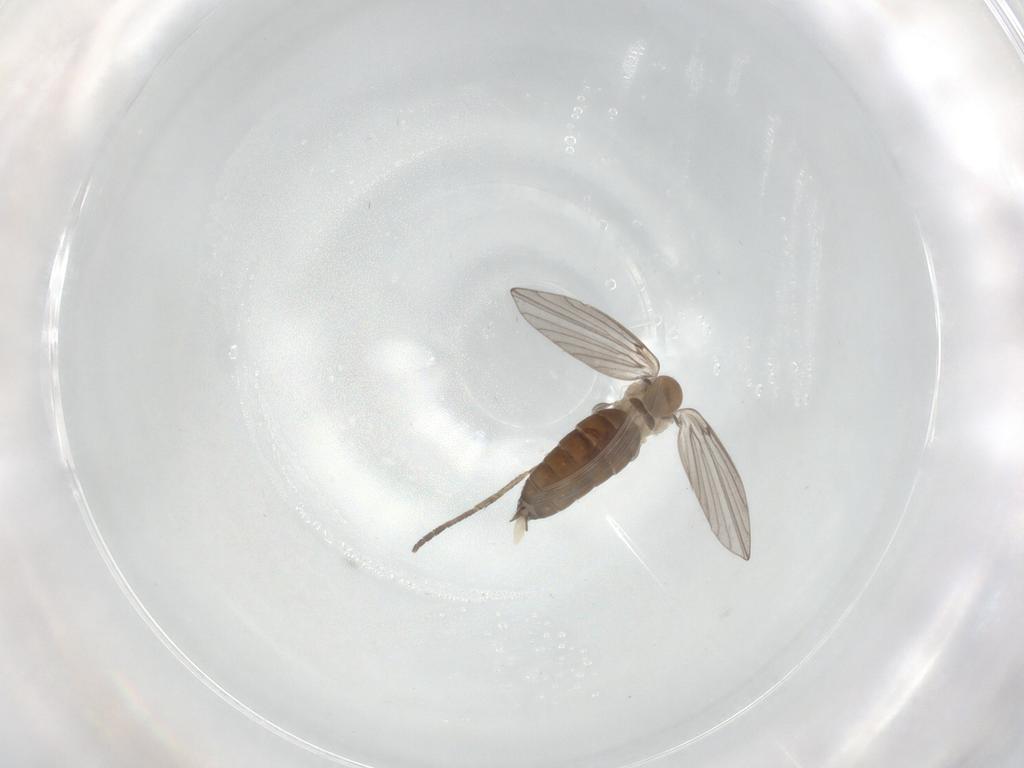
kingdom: Animalia
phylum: Arthropoda
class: Insecta
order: Diptera
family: Psychodidae
